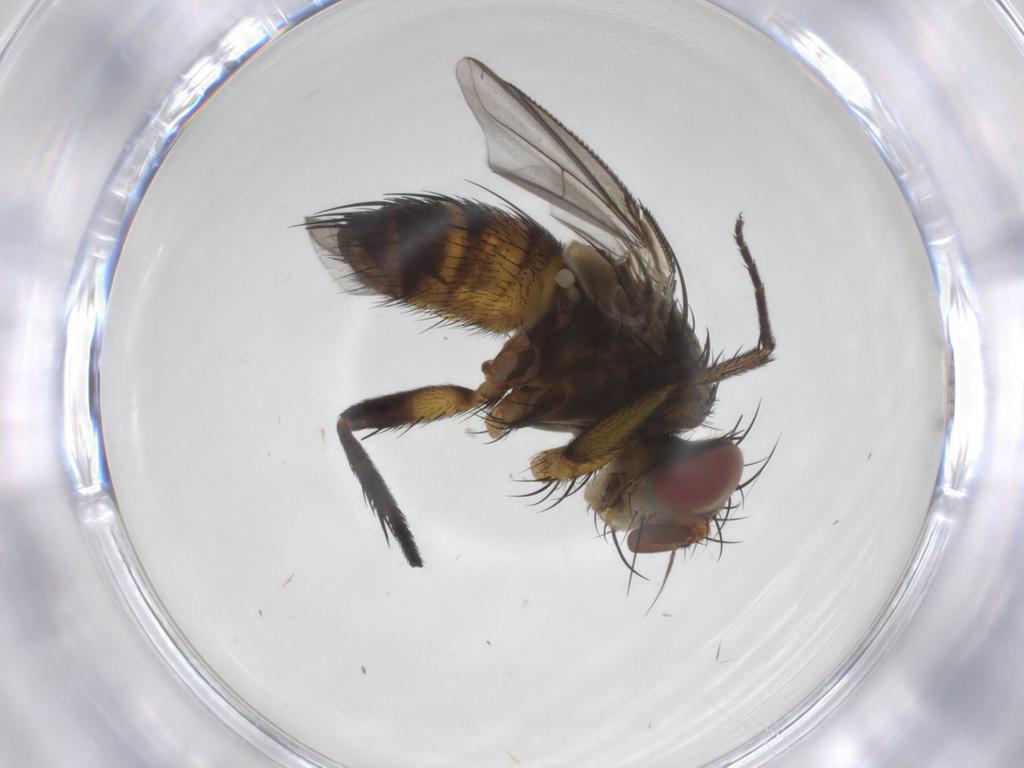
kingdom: Animalia
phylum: Arthropoda
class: Insecta
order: Diptera
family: Tachinidae
